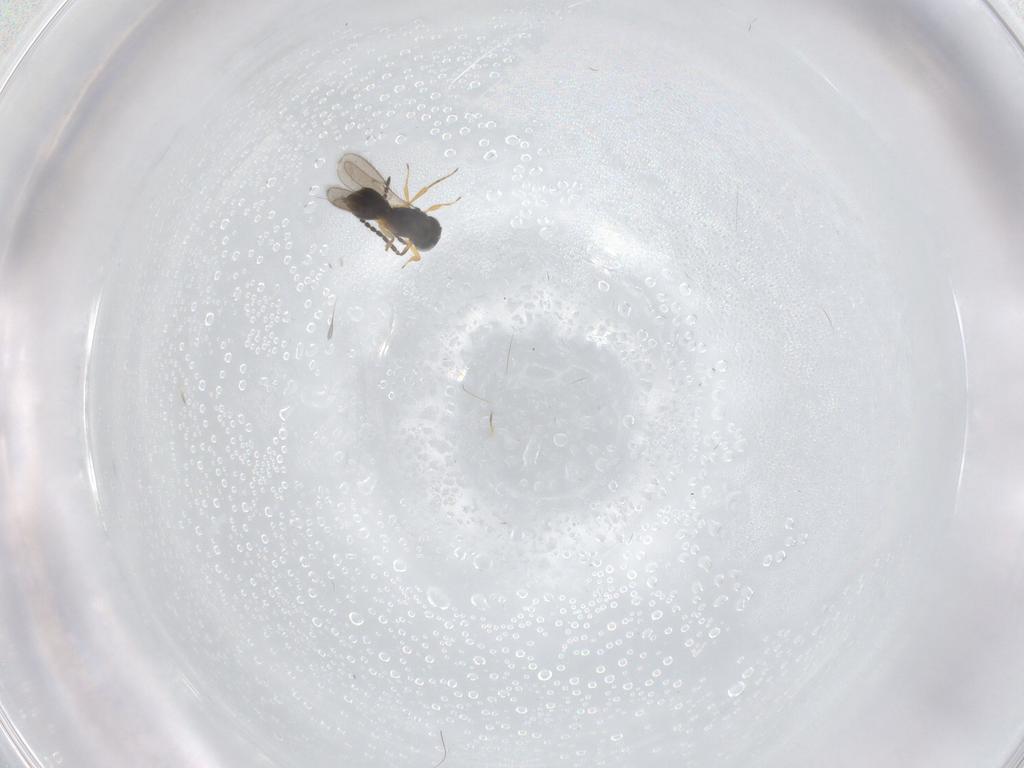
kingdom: Animalia
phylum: Arthropoda
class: Insecta
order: Hymenoptera
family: Scelionidae
